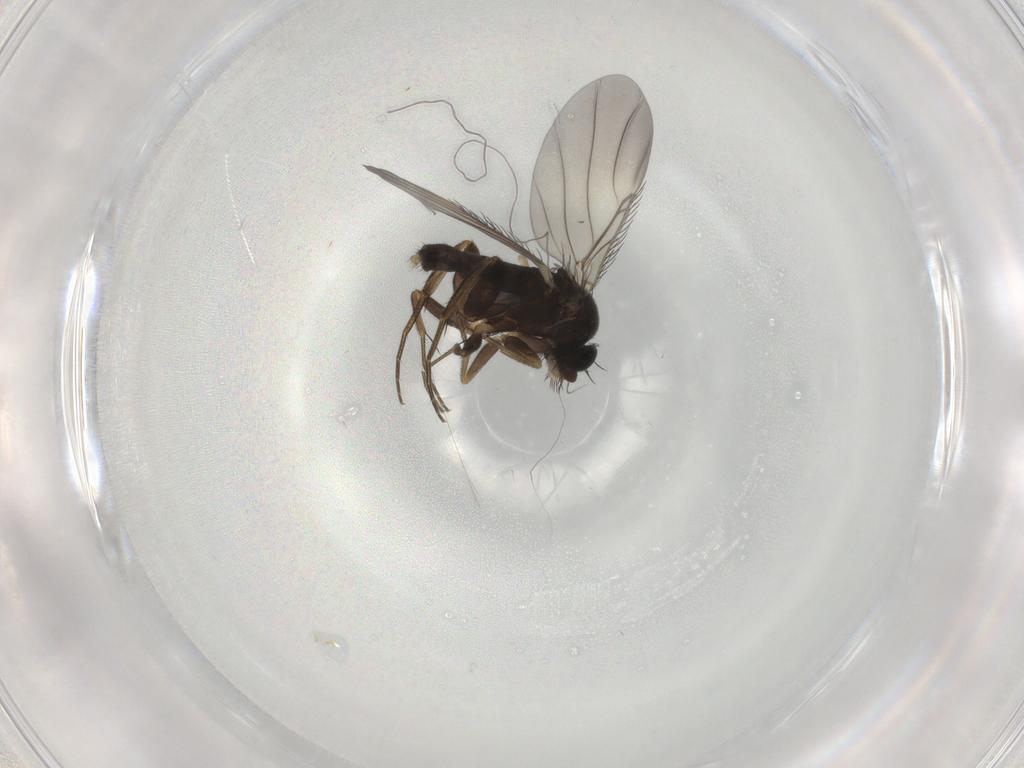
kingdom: Animalia
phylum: Arthropoda
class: Insecta
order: Diptera
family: Phoridae
